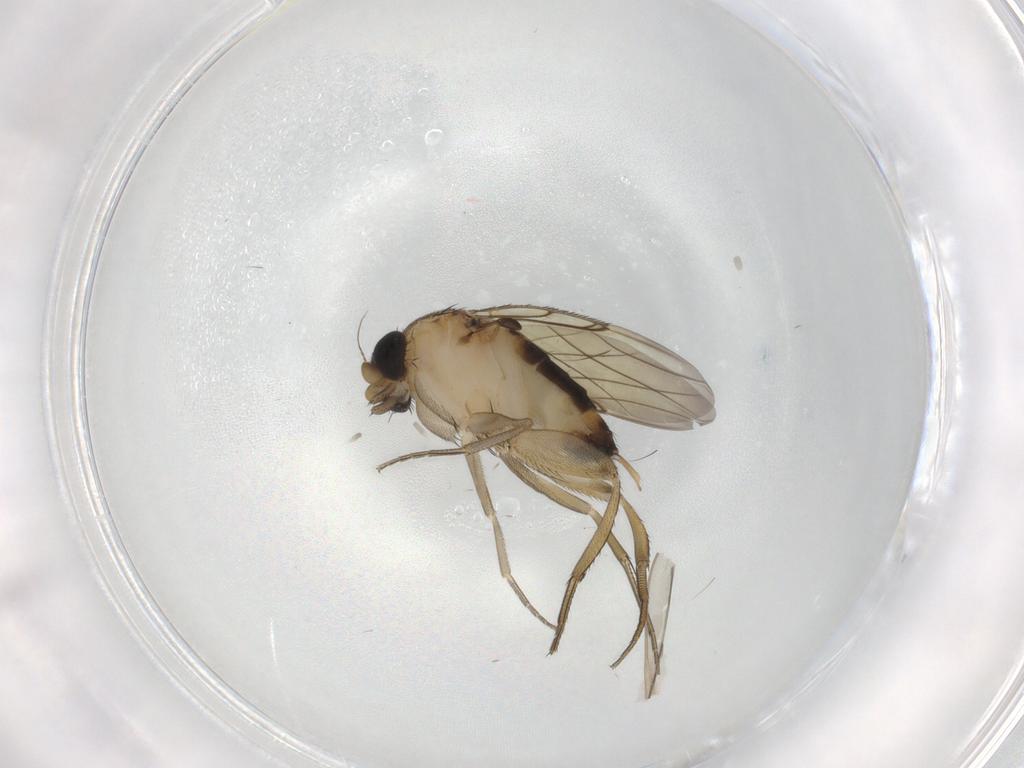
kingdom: Animalia
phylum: Arthropoda
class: Insecta
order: Diptera
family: Phoridae
